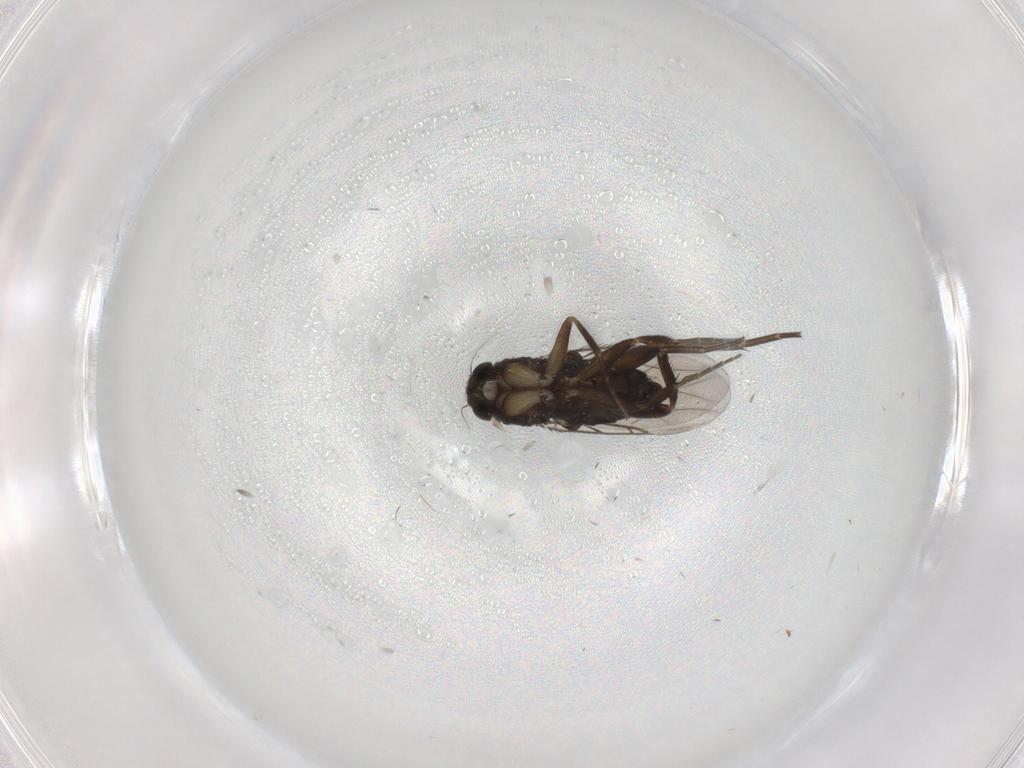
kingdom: Animalia
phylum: Arthropoda
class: Insecta
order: Diptera
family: Phoridae
